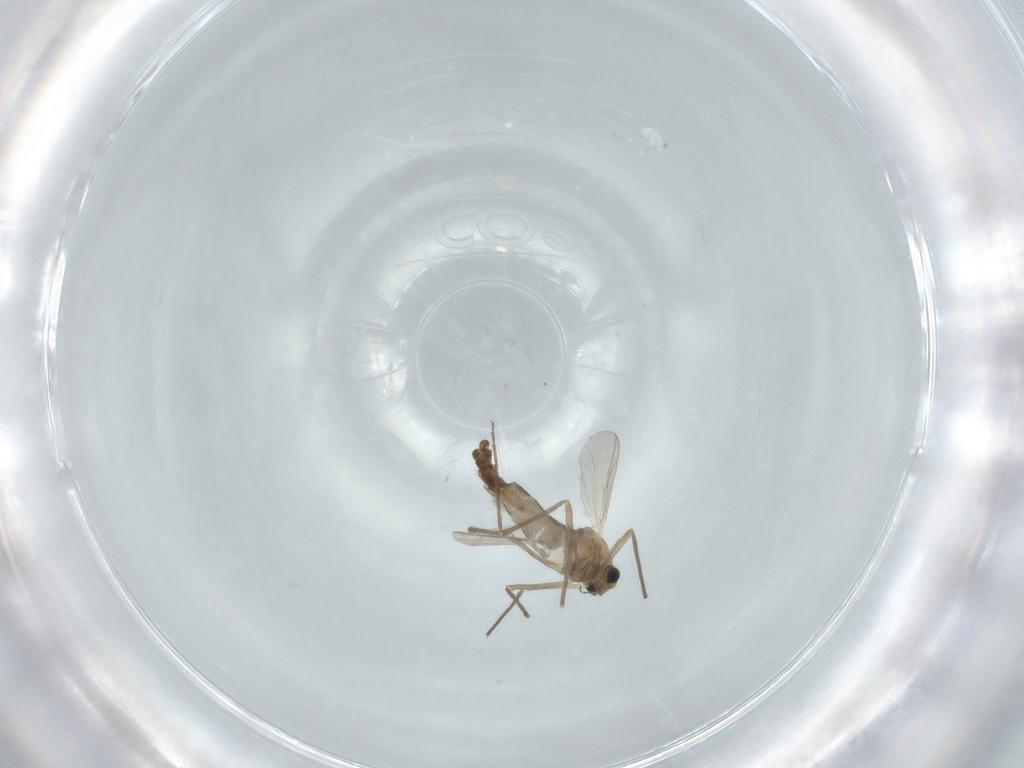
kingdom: Animalia
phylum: Arthropoda
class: Insecta
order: Diptera
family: Chironomidae
